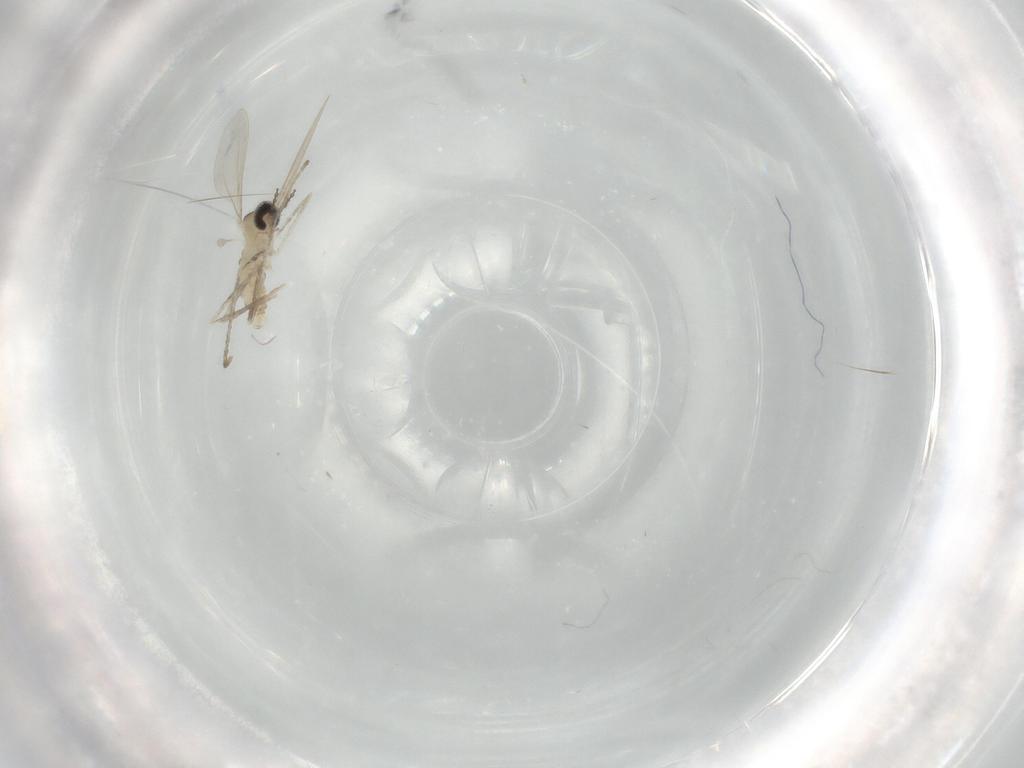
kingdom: Animalia
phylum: Arthropoda
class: Insecta
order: Diptera
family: Cecidomyiidae
